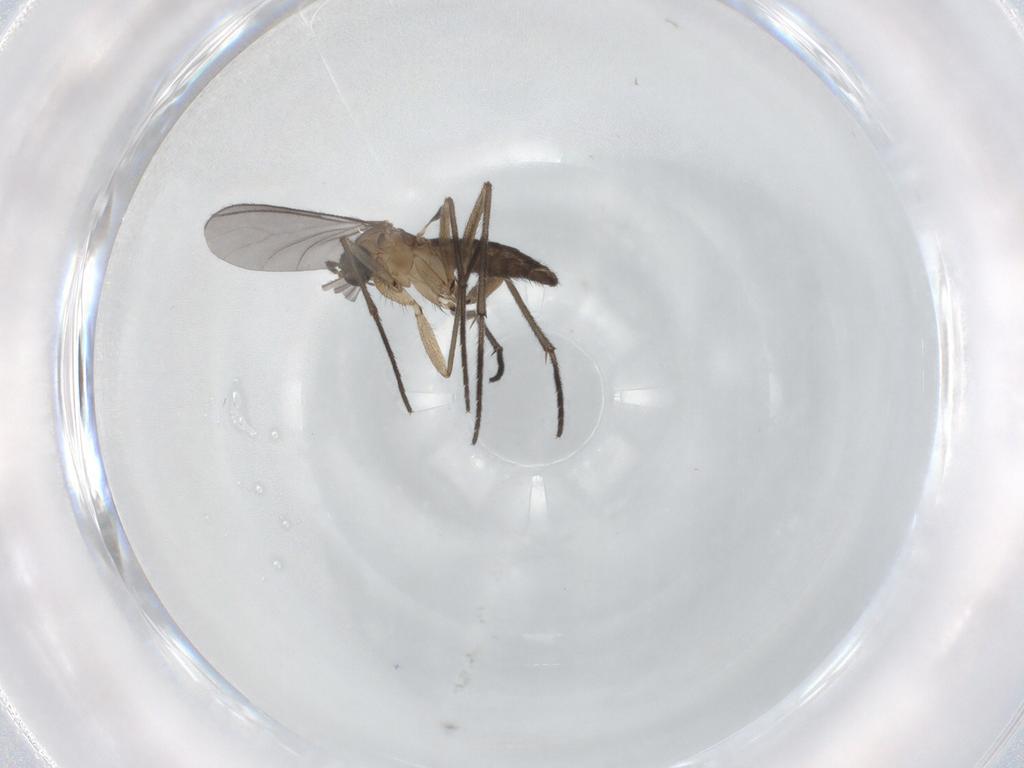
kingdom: Animalia
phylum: Arthropoda
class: Insecta
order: Diptera
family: Sciaridae
